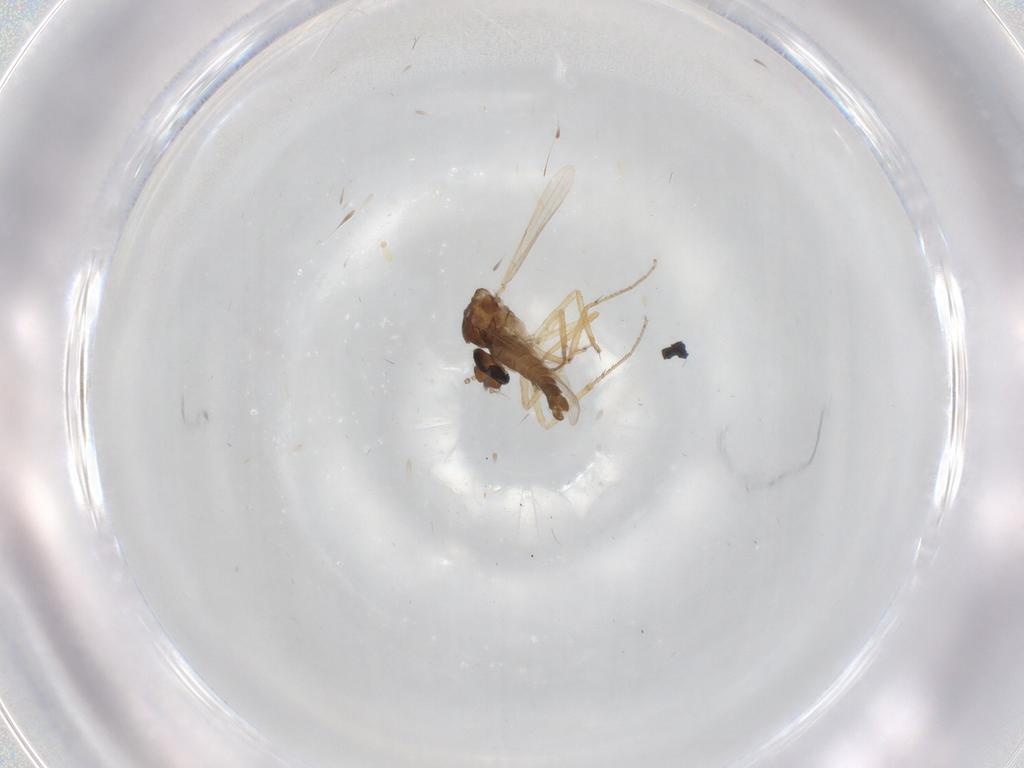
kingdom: Animalia
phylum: Arthropoda
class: Insecta
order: Diptera
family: Ceratopogonidae
